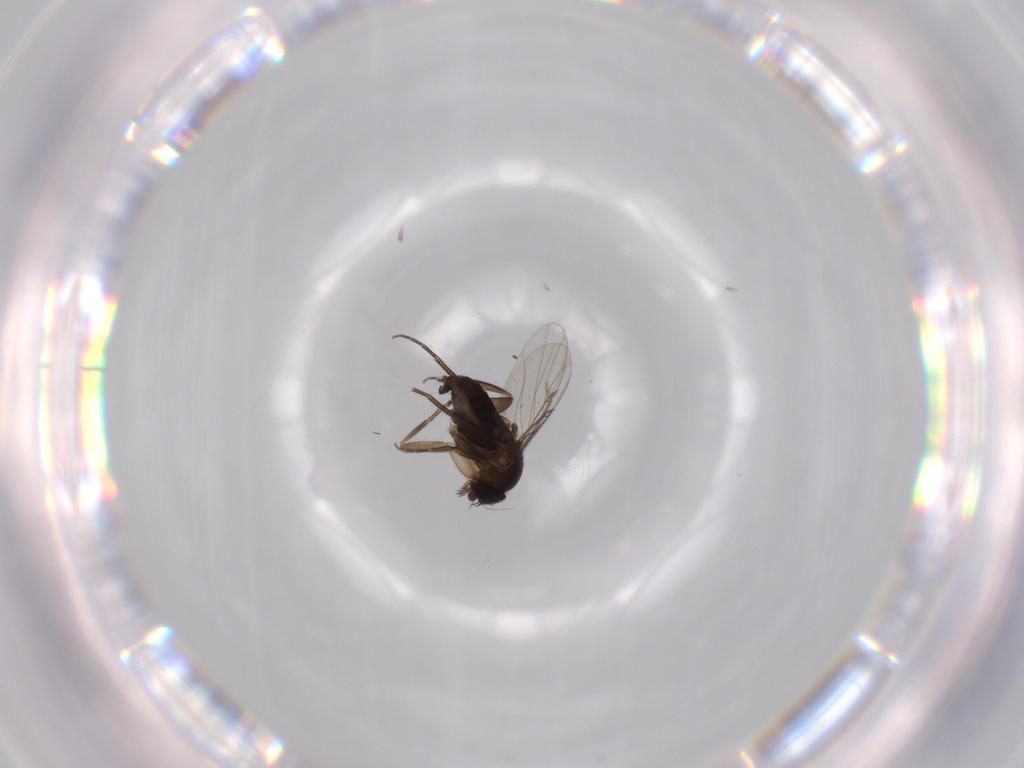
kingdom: Animalia
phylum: Arthropoda
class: Insecta
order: Diptera
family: Phoridae
